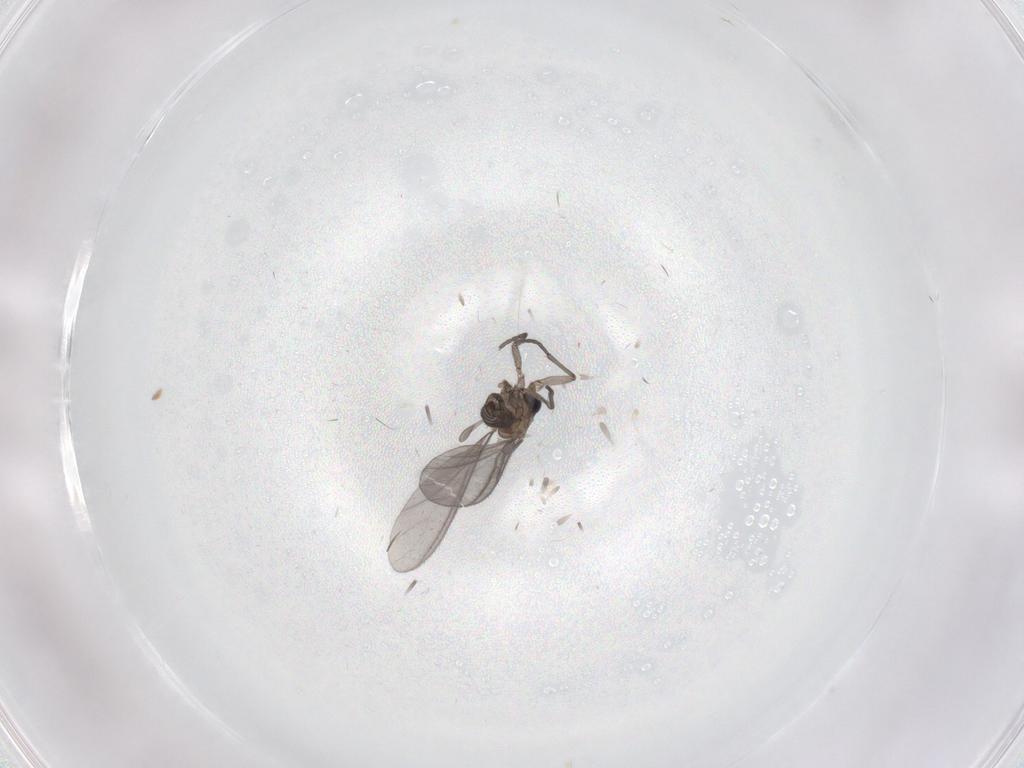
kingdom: Animalia
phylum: Arthropoda
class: Insecta
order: Diptera
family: Sciaridae
